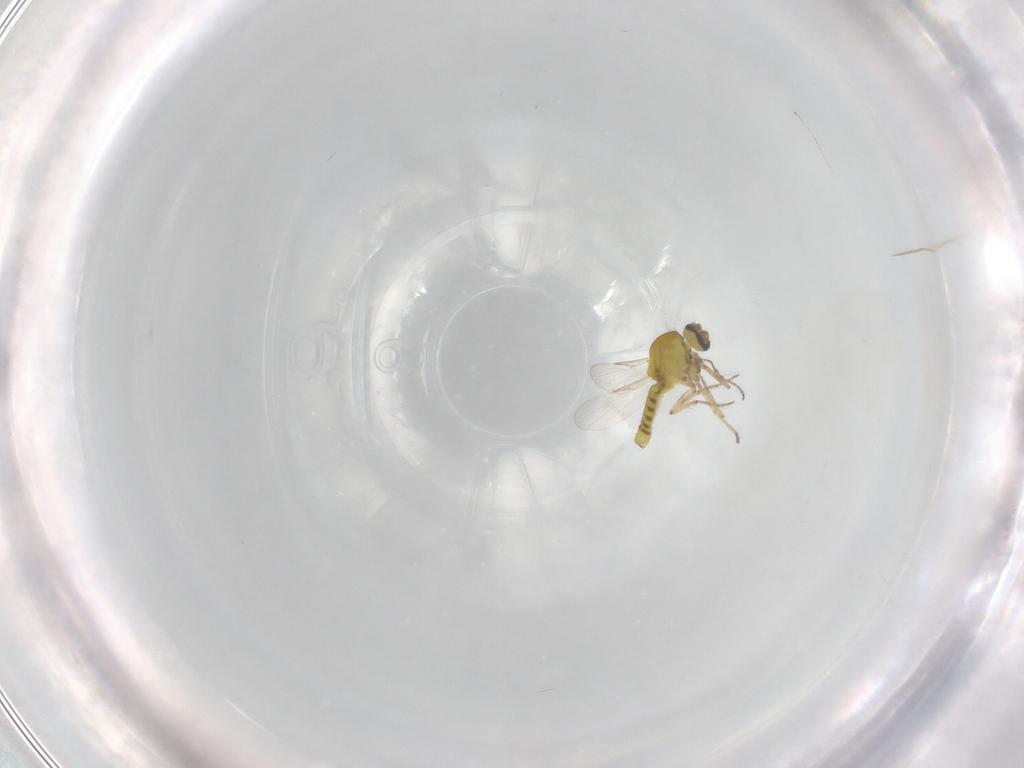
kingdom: Animalia
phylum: Arthropoda
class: Insecta
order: Diptera
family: Ceratopogonidae
